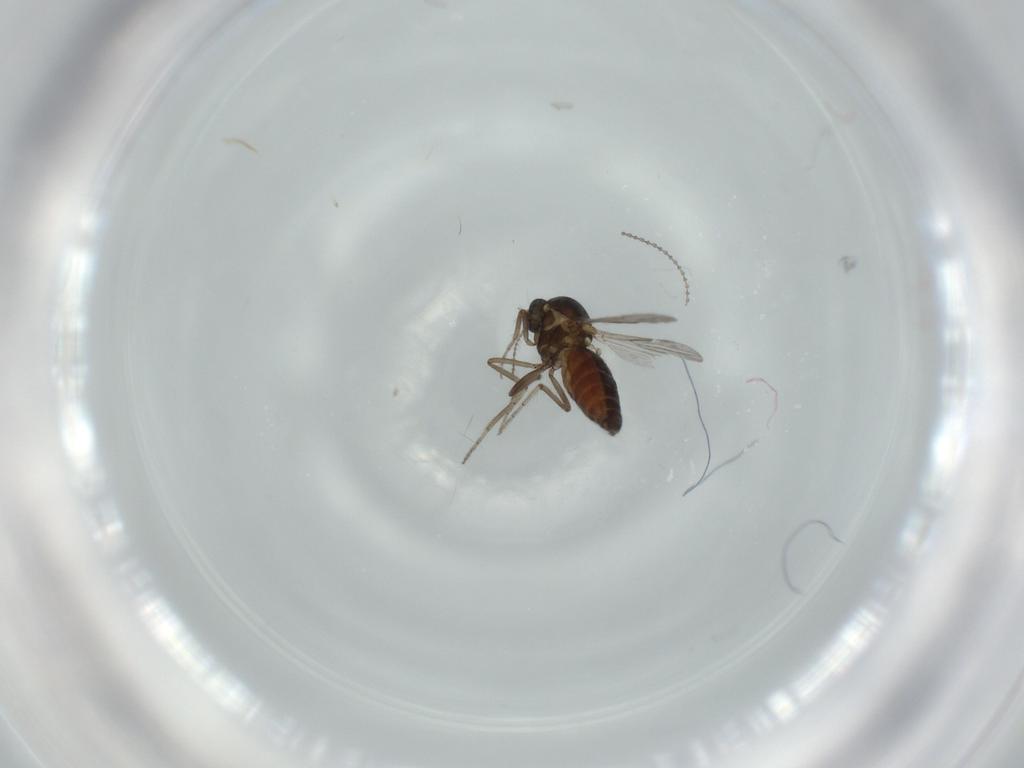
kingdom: Animalia
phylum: Arthropoda
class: Insecta
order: Diptera
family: Ceratopogonidae
